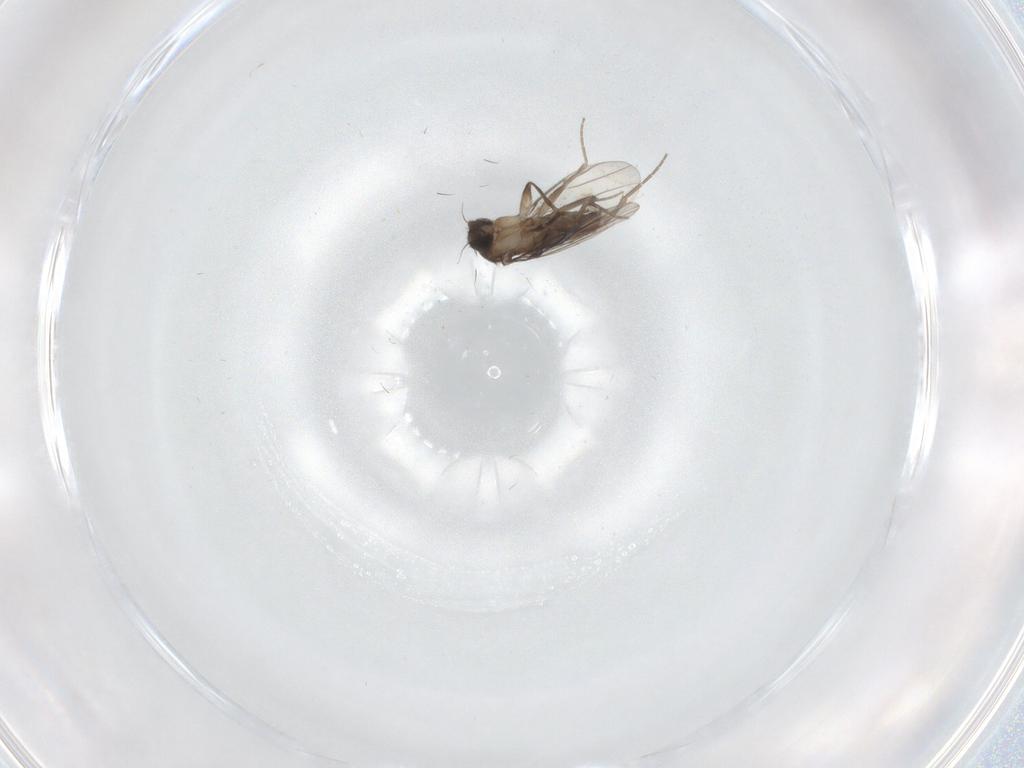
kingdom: Animalia
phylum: Arthropoda
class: Insecta
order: Diptera
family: Phoridae
